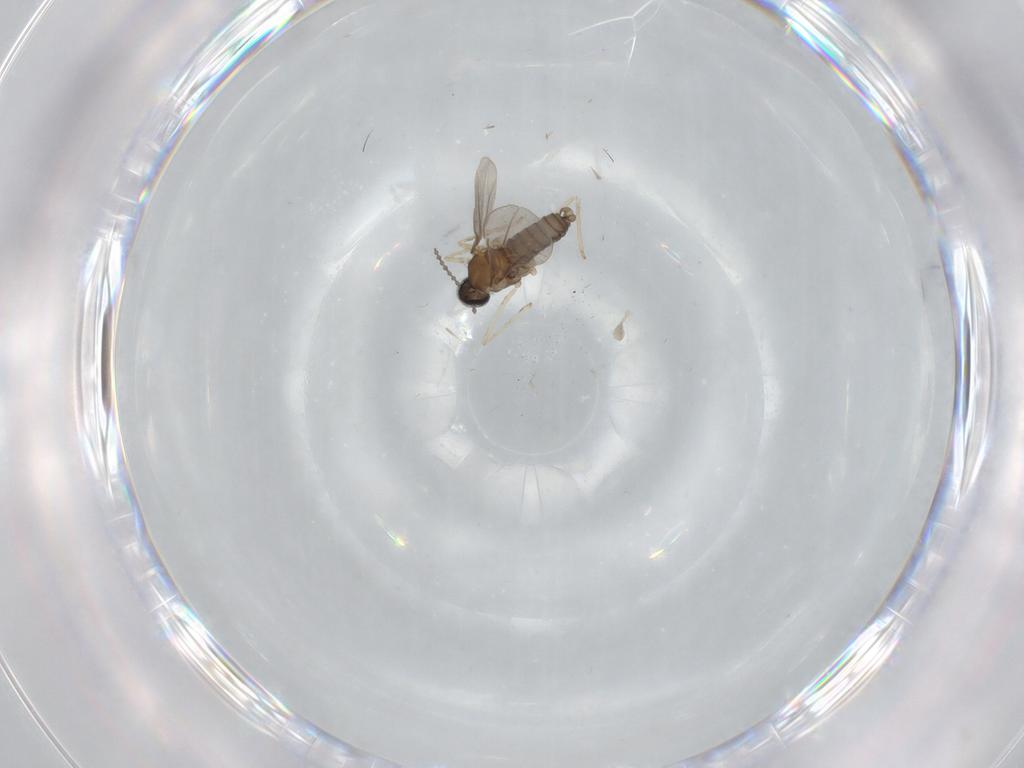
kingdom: Animalia
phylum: Arthropoda
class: Insecta
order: Diptera
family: Cecidomyiidae
